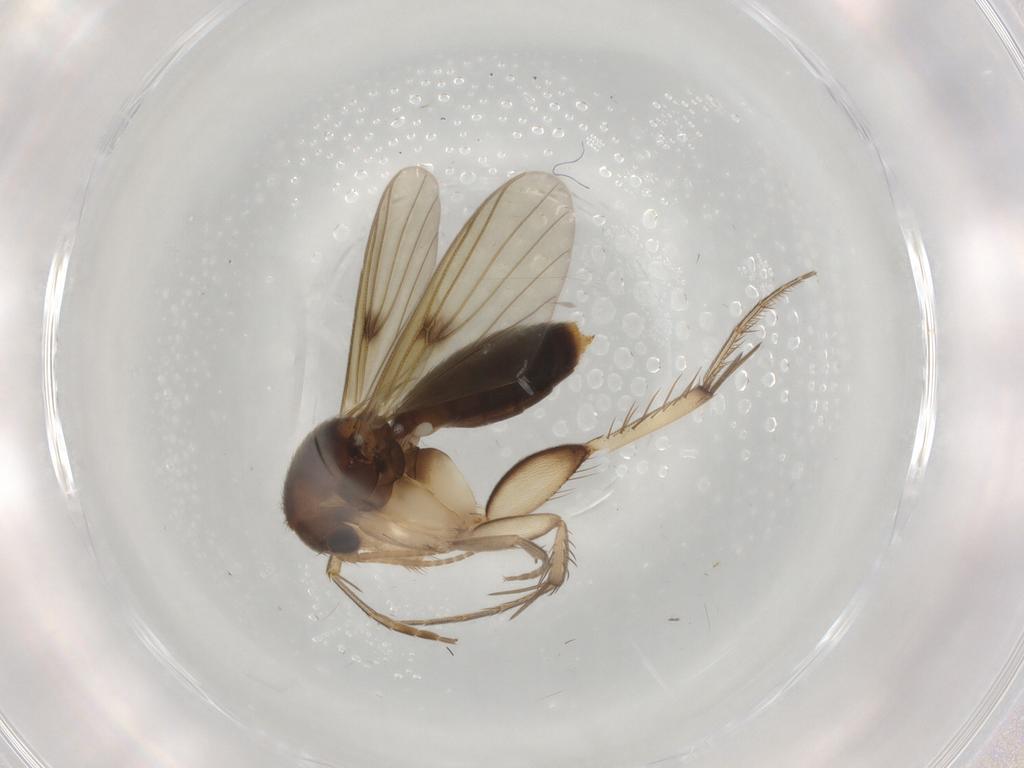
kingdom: Animalia
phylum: Arthropoda
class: Insecta
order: Diptera
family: Mycetophilidae
